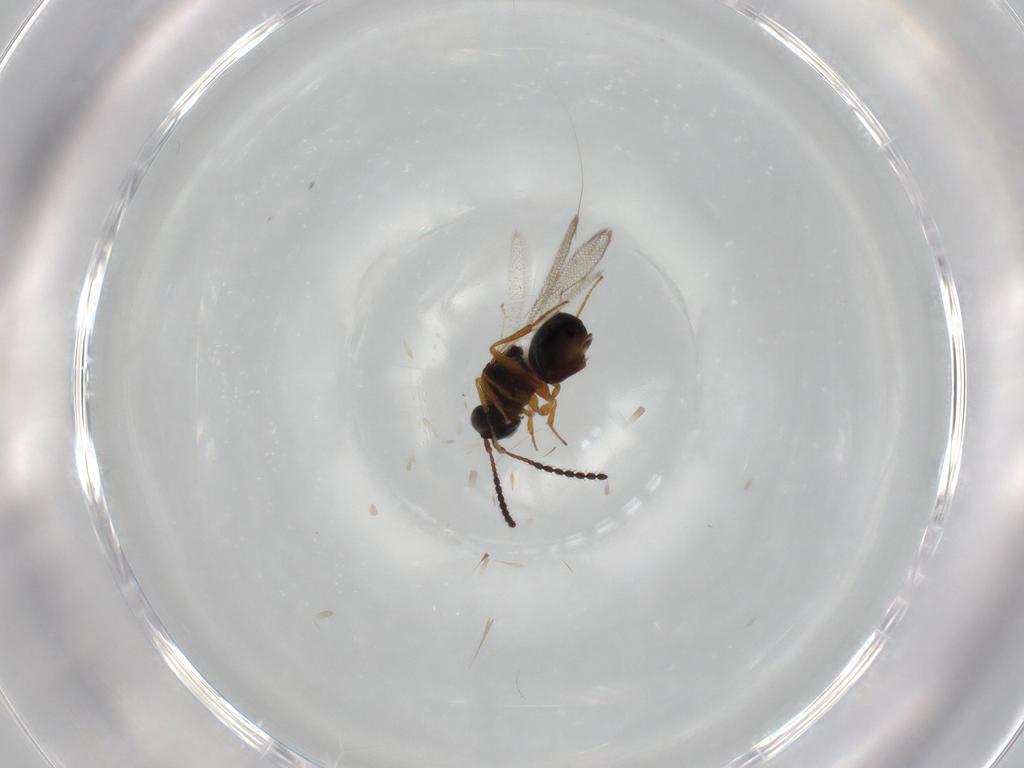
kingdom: Animalia
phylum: Arthropoda
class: Insecta
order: Hymenoptera
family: Figitidae
